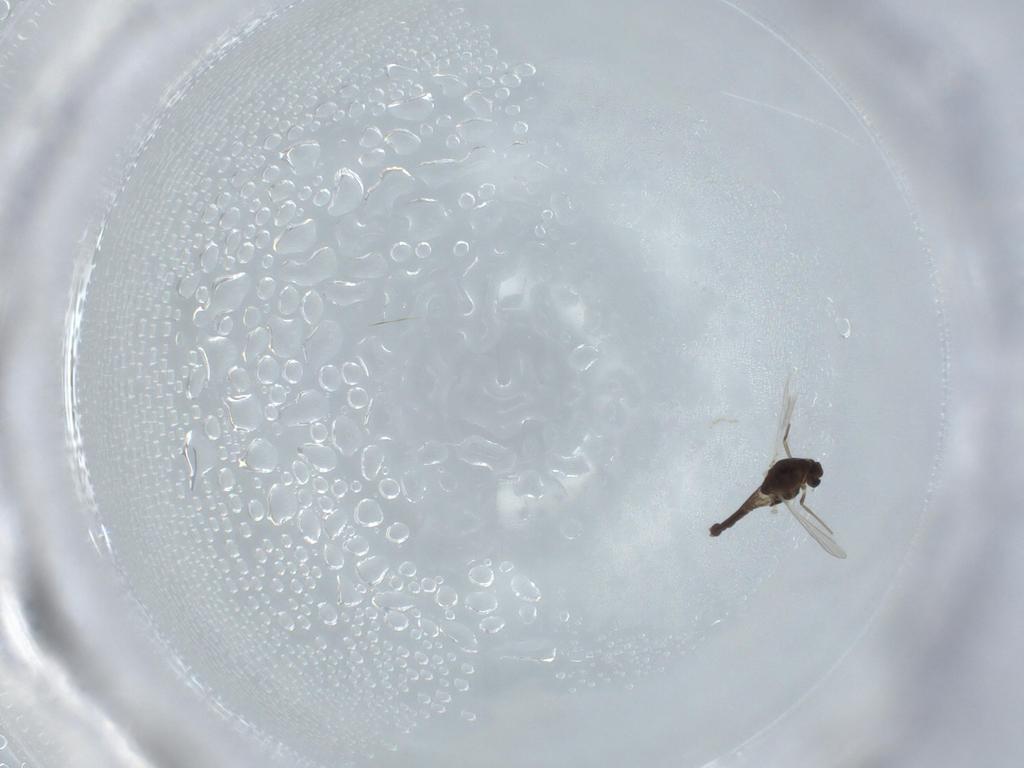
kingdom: Animalia
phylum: Arthropoda
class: Insecta
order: Diptera
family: Chironomidae
